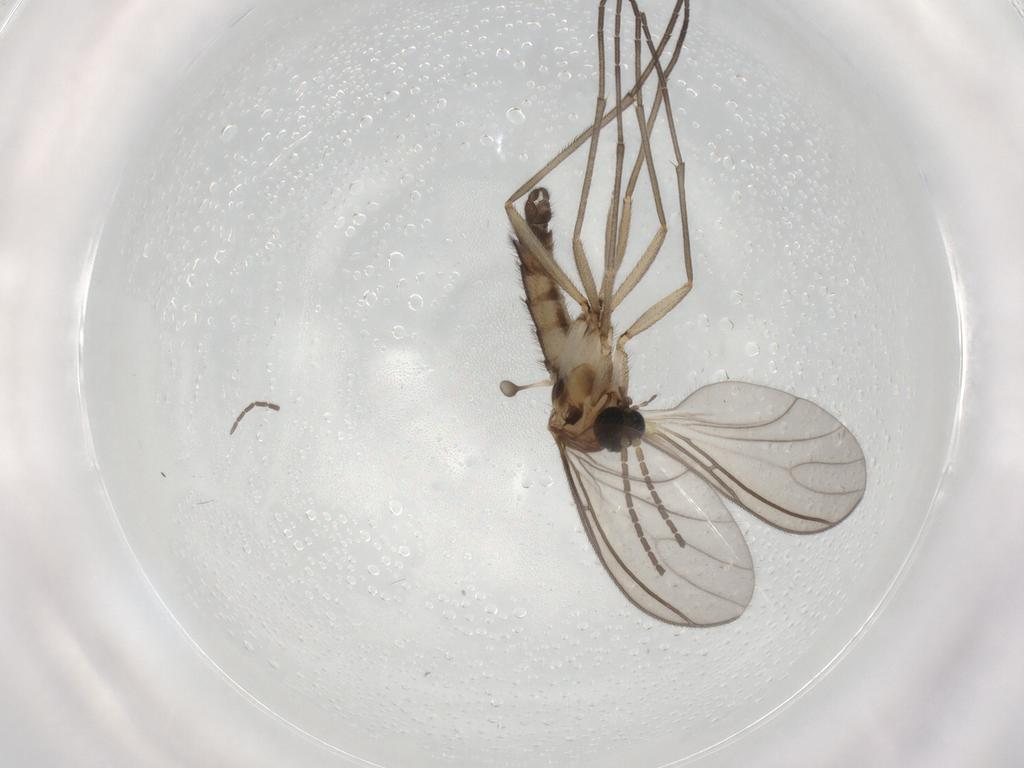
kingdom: Animalia
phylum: Arthropoda
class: Insecta
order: Diptera
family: Sciaridae
